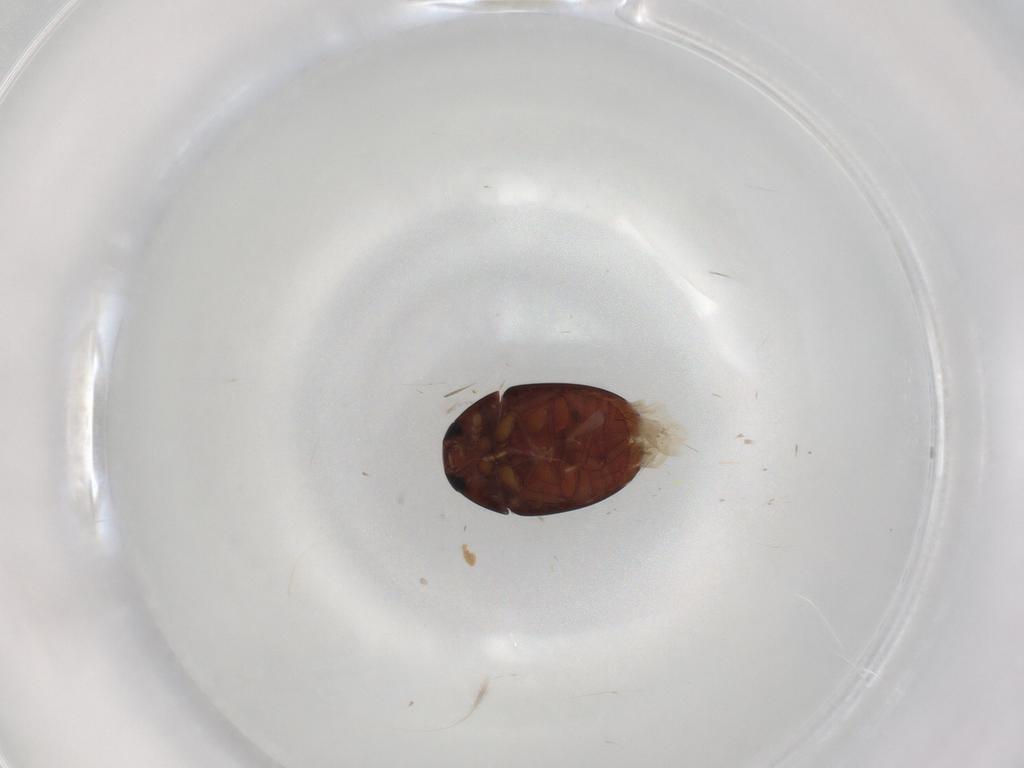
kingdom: Animalia
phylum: Arthropoda
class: Insecta
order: Coleoptera
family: Phalacridae
